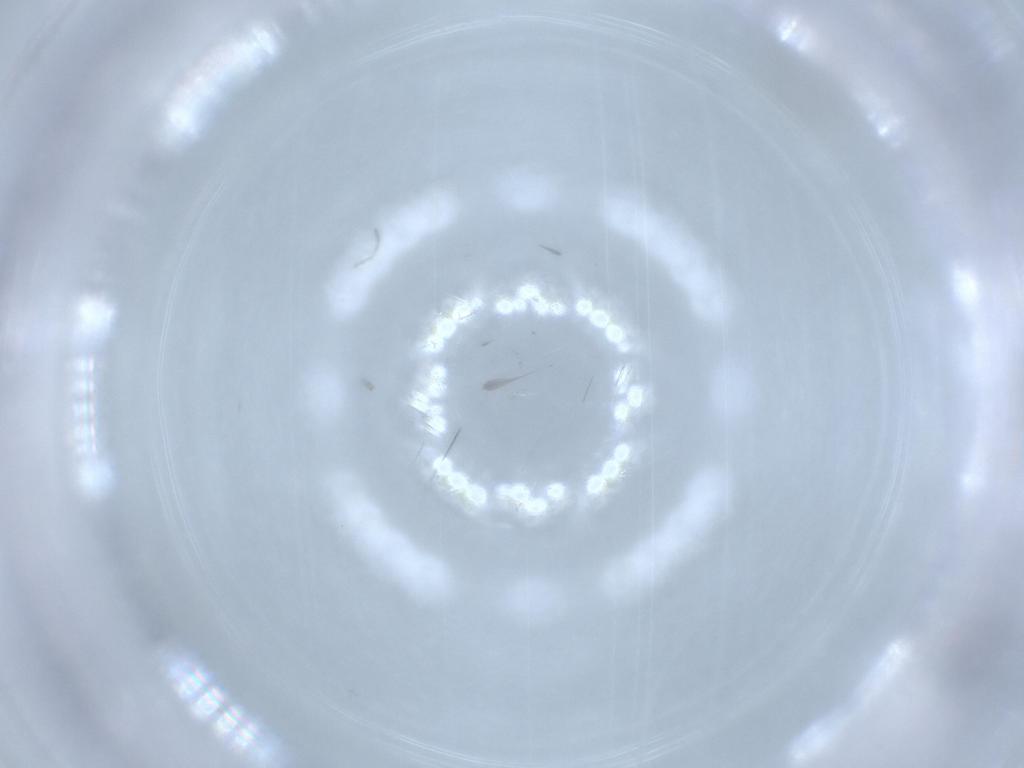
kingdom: Animalia
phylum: Arthropoda
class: Insecta
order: Diptera
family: Cecidomyiidae
